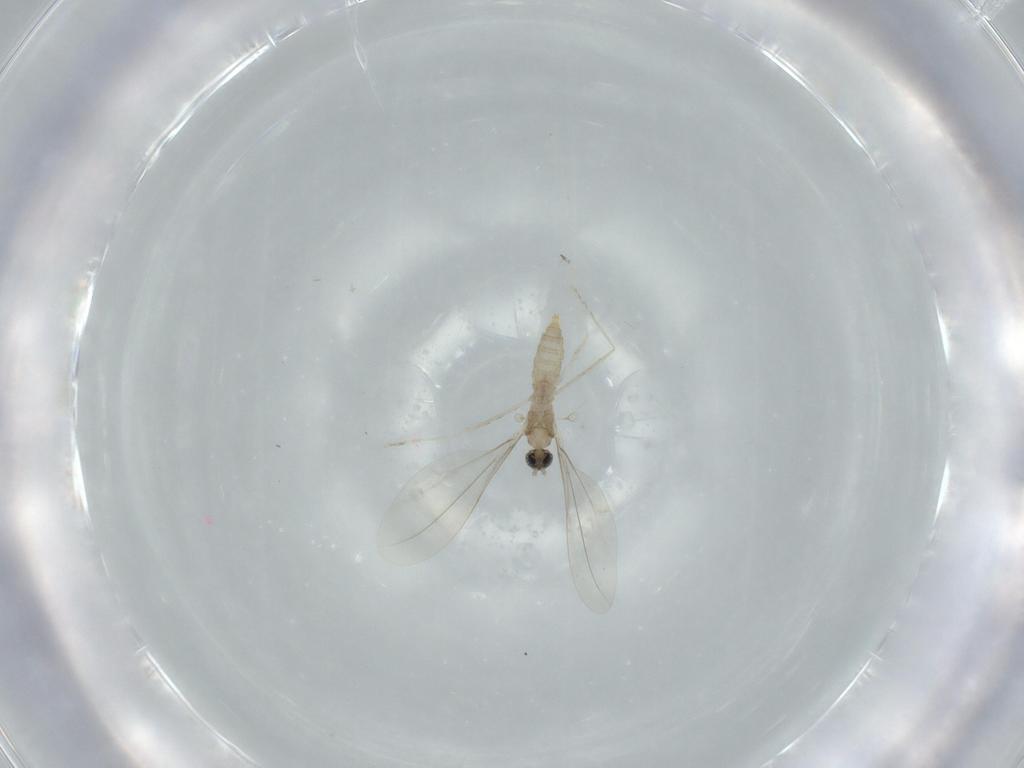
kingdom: Animalia
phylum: Arthropoda
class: Insecta
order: Diptera
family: Cecidomyiidae
